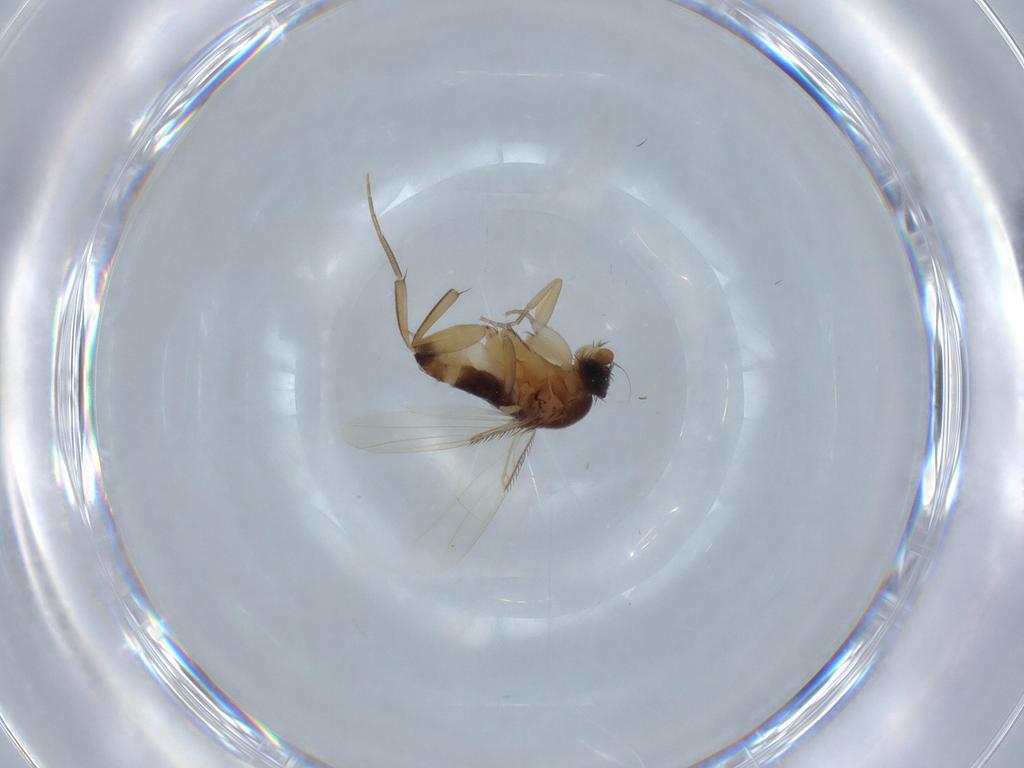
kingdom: Animalia
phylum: Arthropoda
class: Insecta
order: Diptera
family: Phoridae
